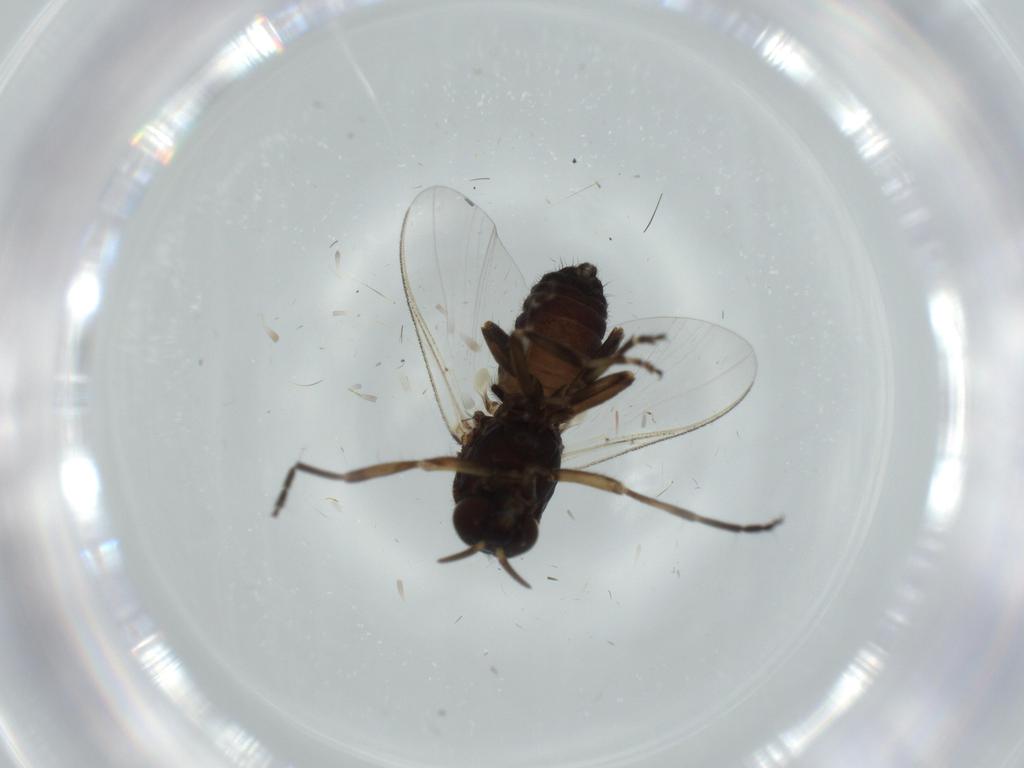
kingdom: Animalia
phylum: Arthropoda
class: Insecta
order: Diptera
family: Cecidomyiidae
